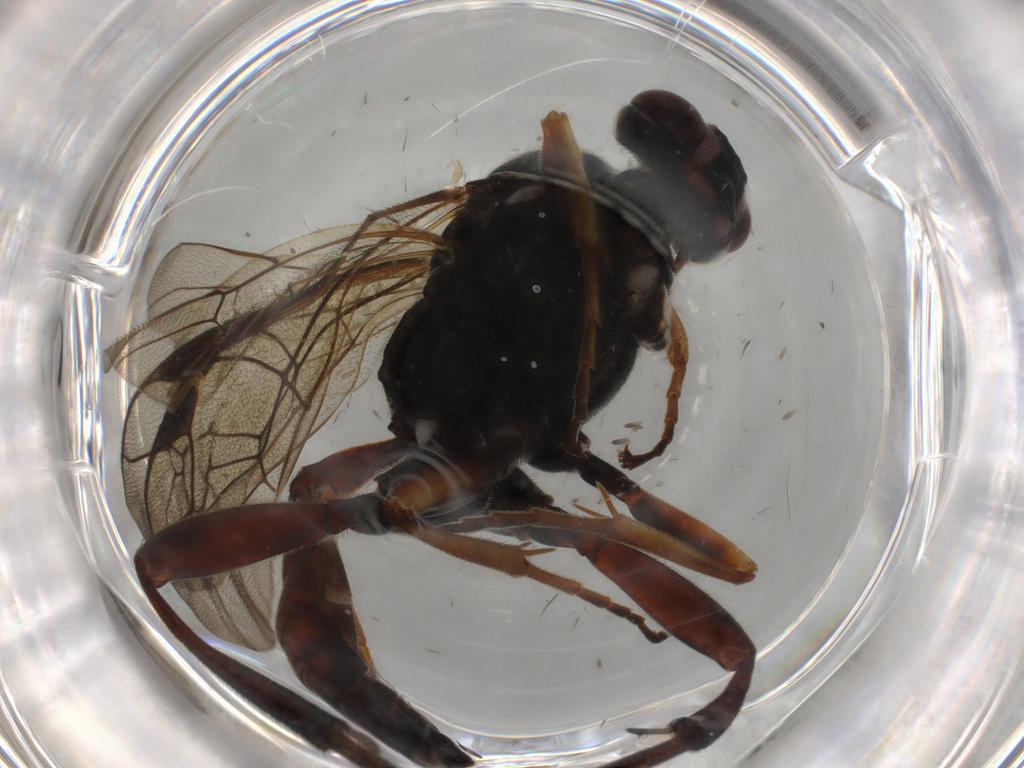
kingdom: Animalia
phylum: Arthropoda
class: Insecta
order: Hymenoptera
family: Ichneumonidae
